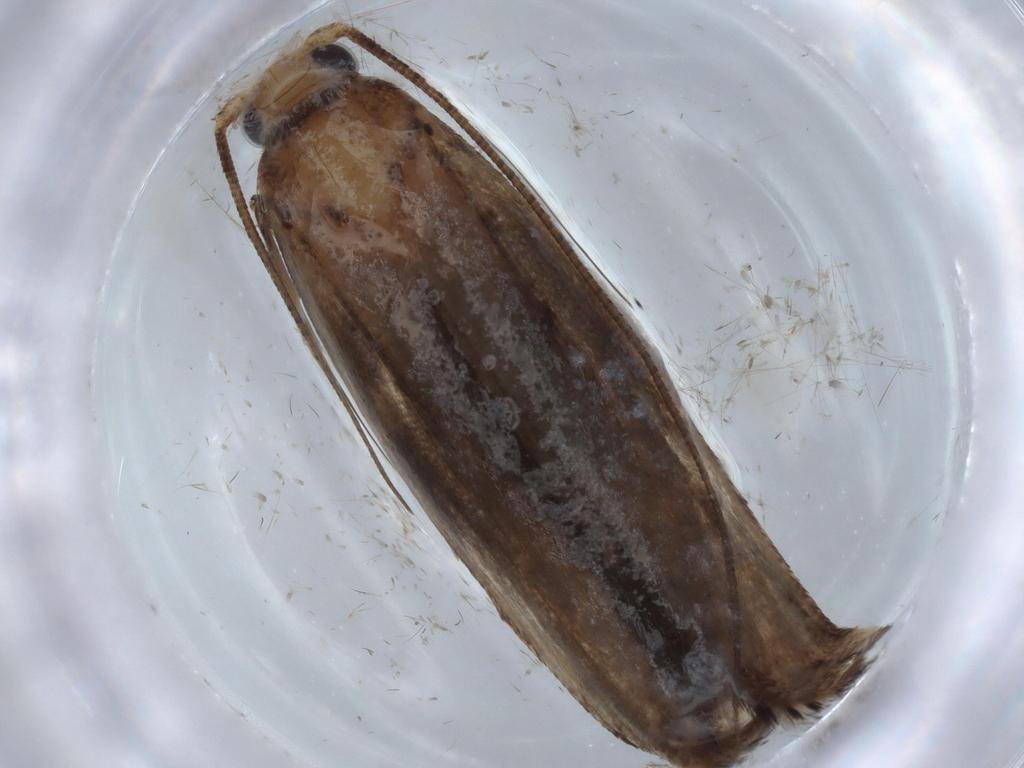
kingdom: Animalia
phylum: Arthropoda
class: Insecta
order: Lepidoptera
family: Yponomeutidae
